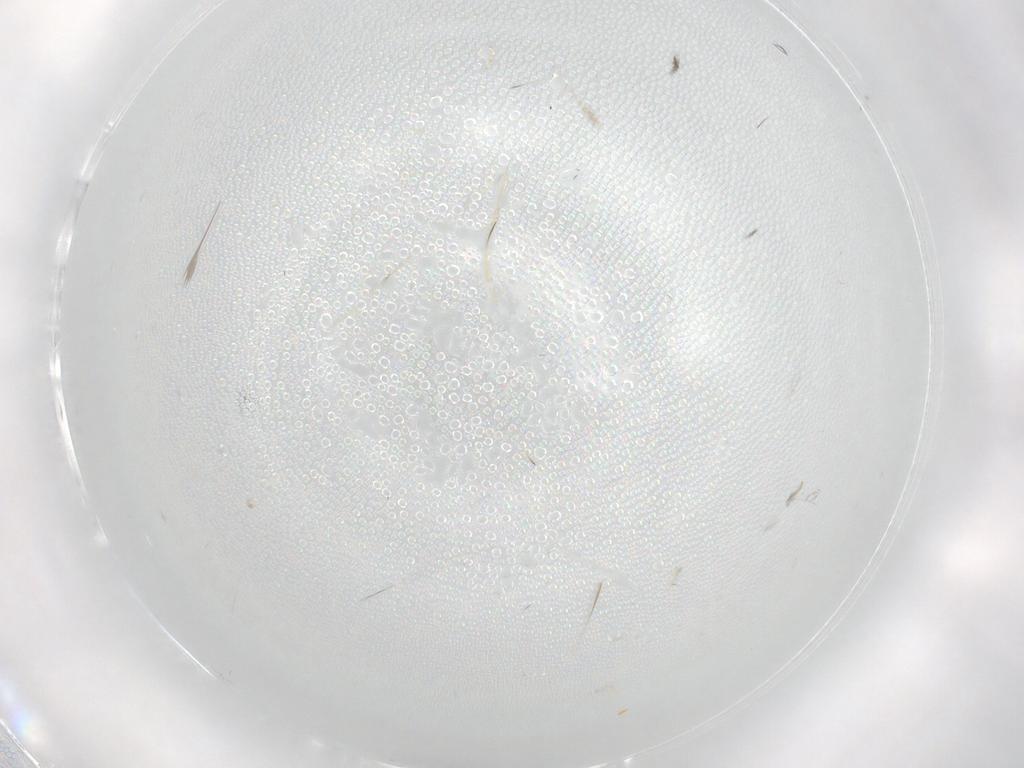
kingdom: Animalia
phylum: Arthropoda
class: Insecta
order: Diptera
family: Cecidomyiidae
